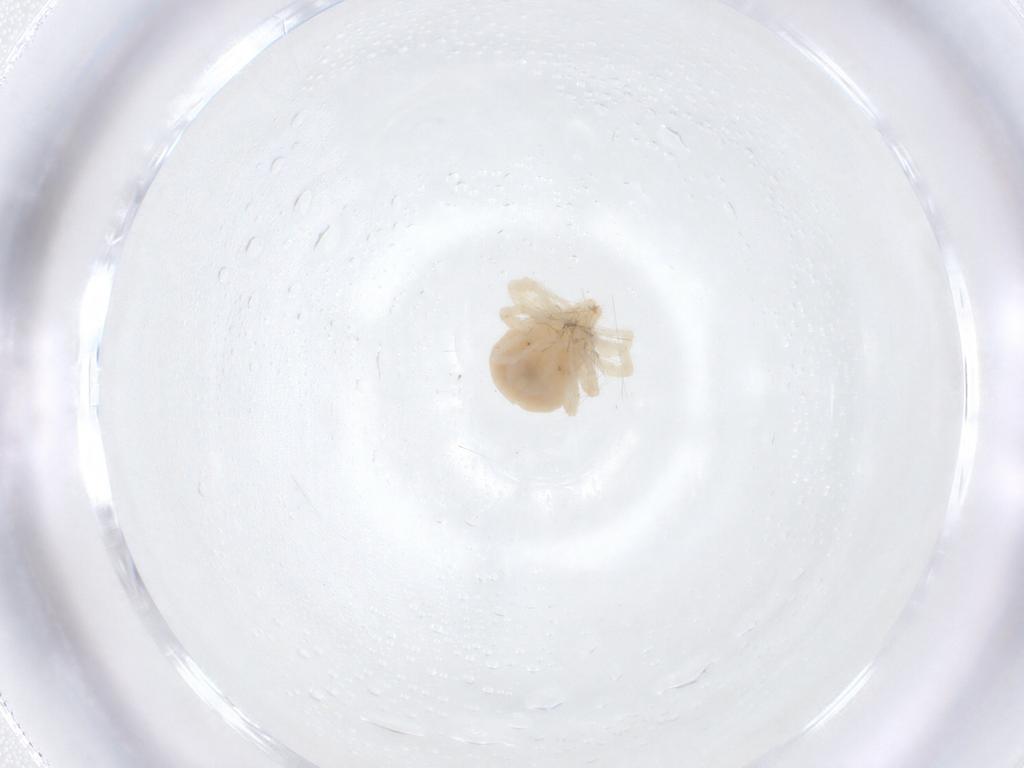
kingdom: Animalia
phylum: Arthropoda
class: Arachnida
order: Trombidiformes
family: Anystidae
